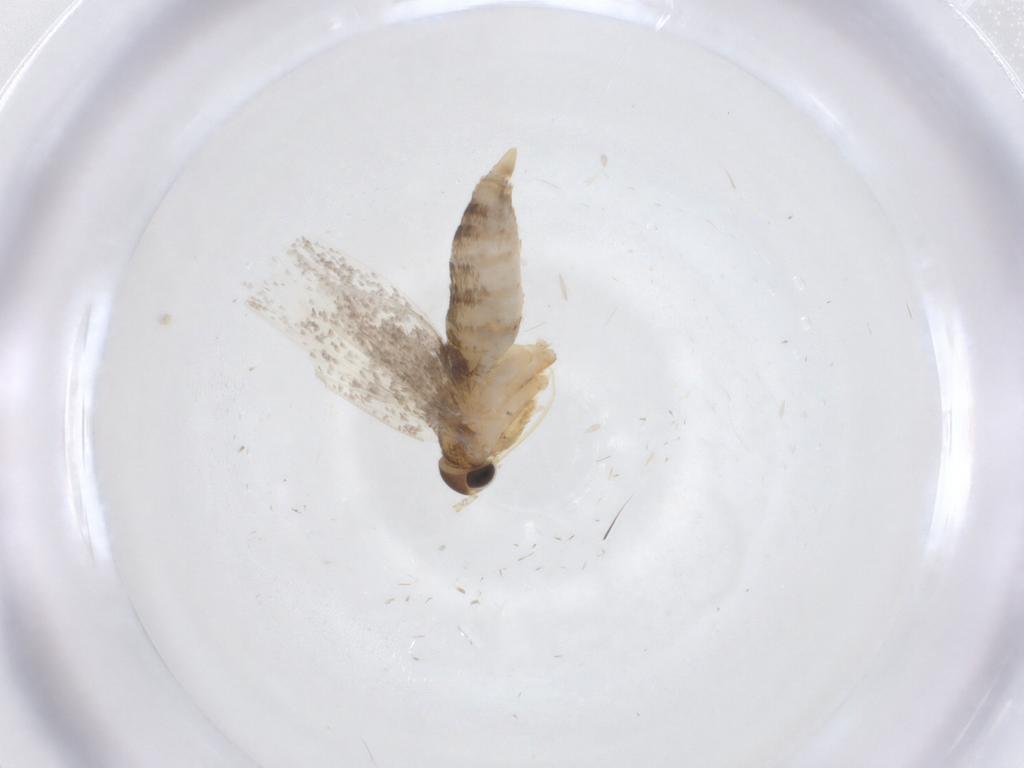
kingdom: Animalia
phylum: Arthropoda
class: Insecta
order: Lepidoptera
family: Oecophoridae
